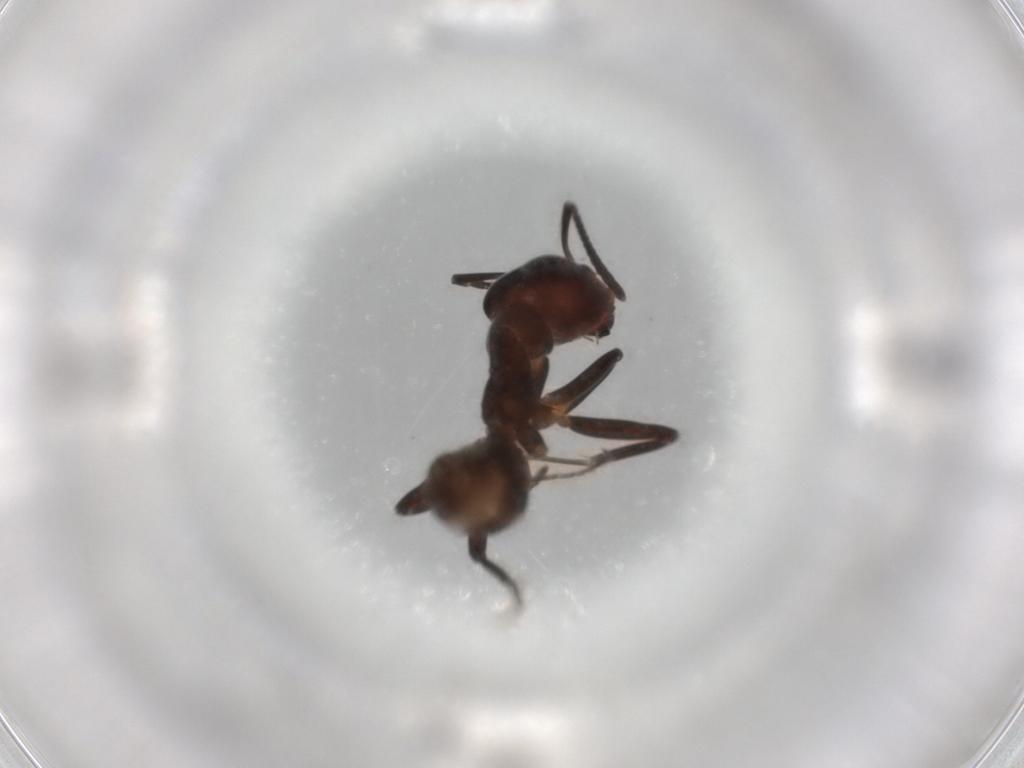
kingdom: Animalia
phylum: Arthropoda
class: Insecta
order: Hymenoptera
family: Formicidae
